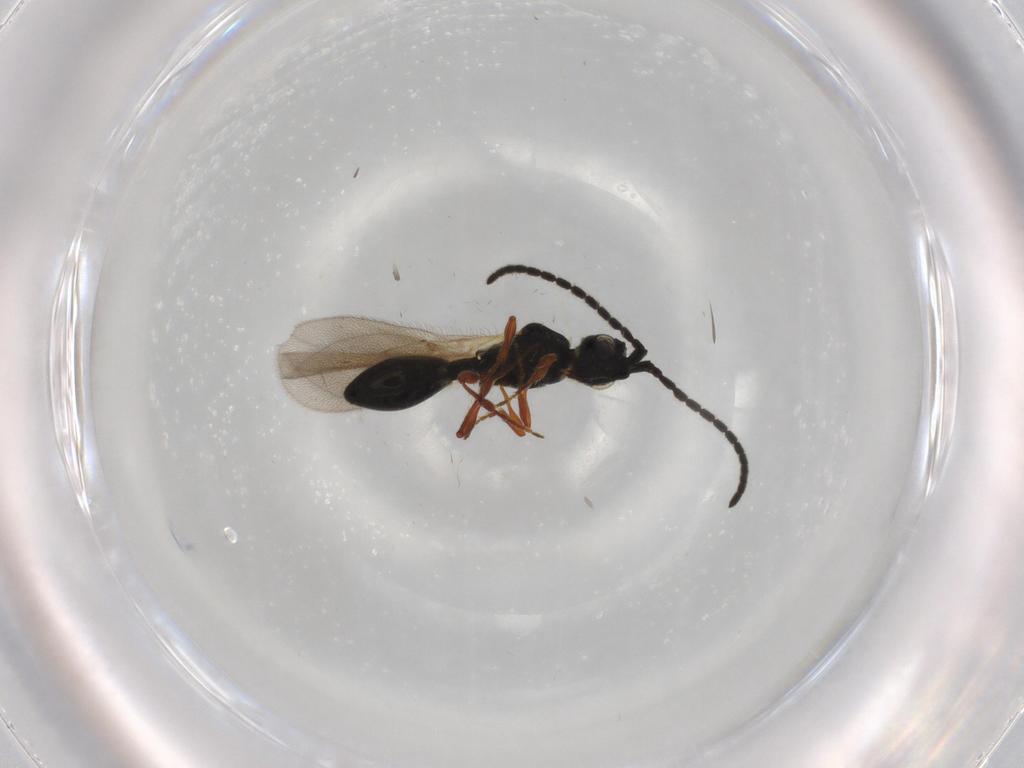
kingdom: Animalia
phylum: Arthropoda
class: Insecta
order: Hymenoptera
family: Diapriidae
